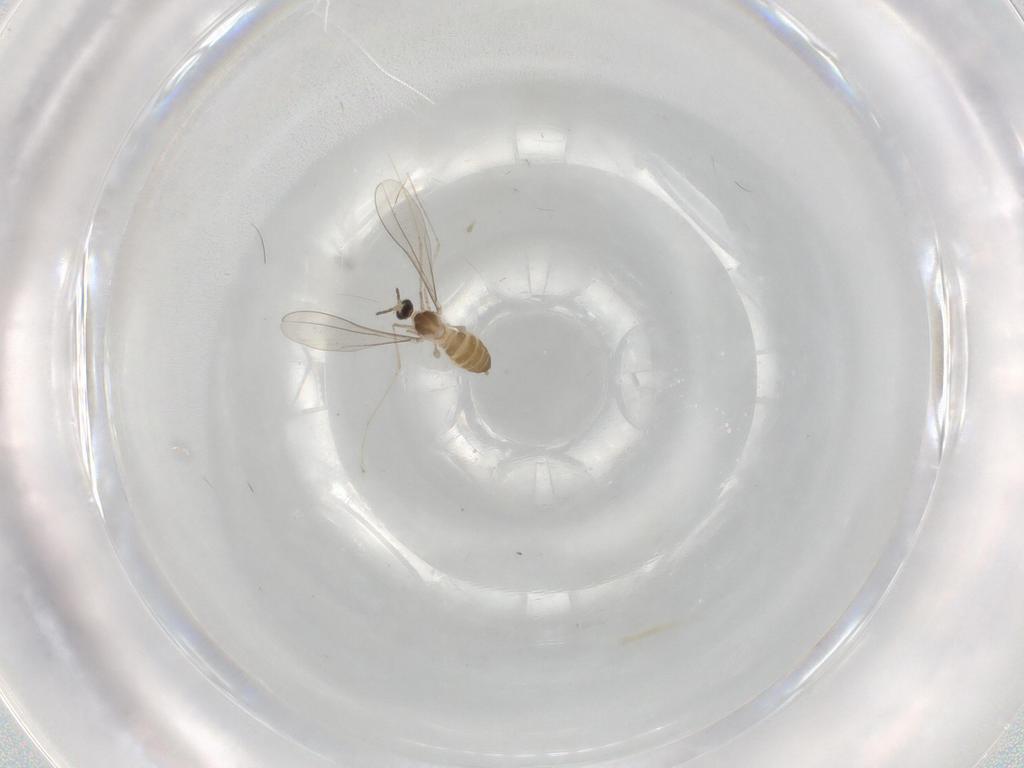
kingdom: Animalia
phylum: Arthropoda
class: Insecta
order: Diptera
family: Cecidomyiidae
